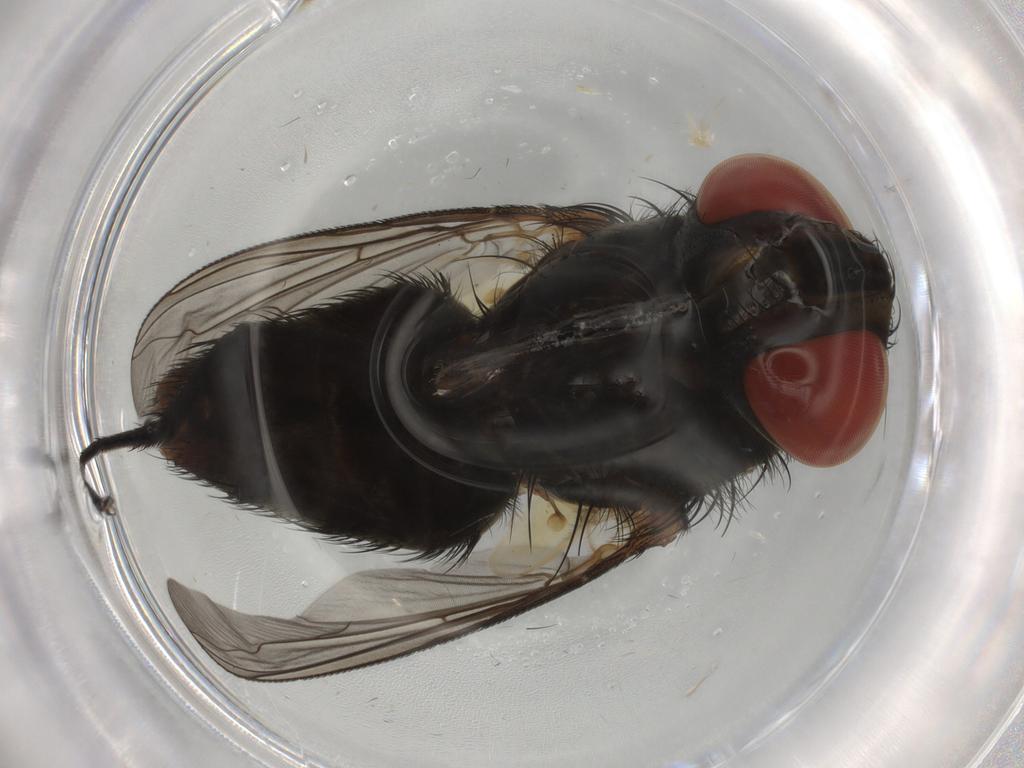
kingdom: Animalia
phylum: Arthropoda
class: Insecta
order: Diptera
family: Sarcophagidae
